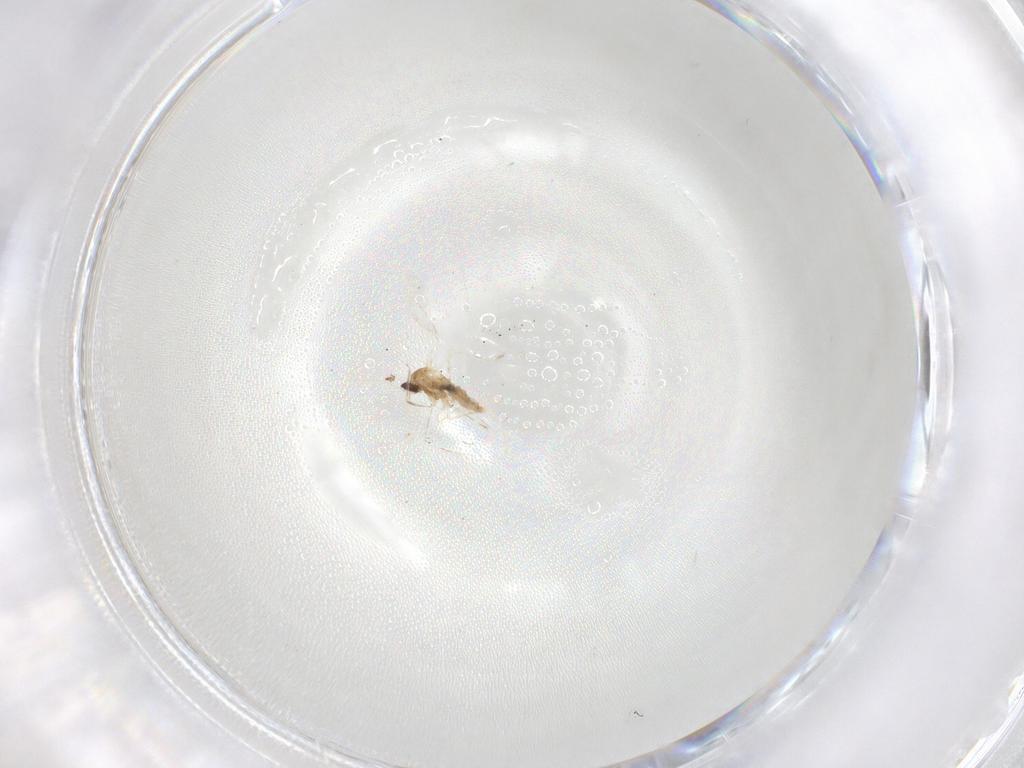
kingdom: Animalia
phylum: Arthropoda
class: Insecta
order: Diptera
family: Cecidomyiidae
